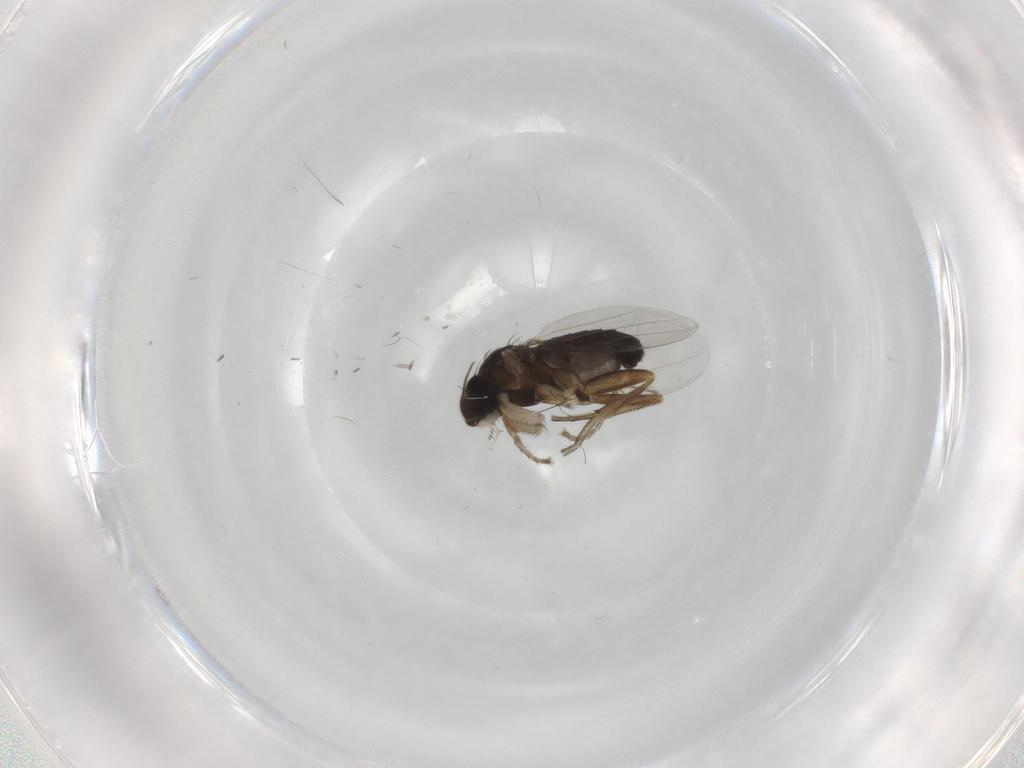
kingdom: Animalia
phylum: Arthropoda
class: Insecta
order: Diptera
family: Phoridae
